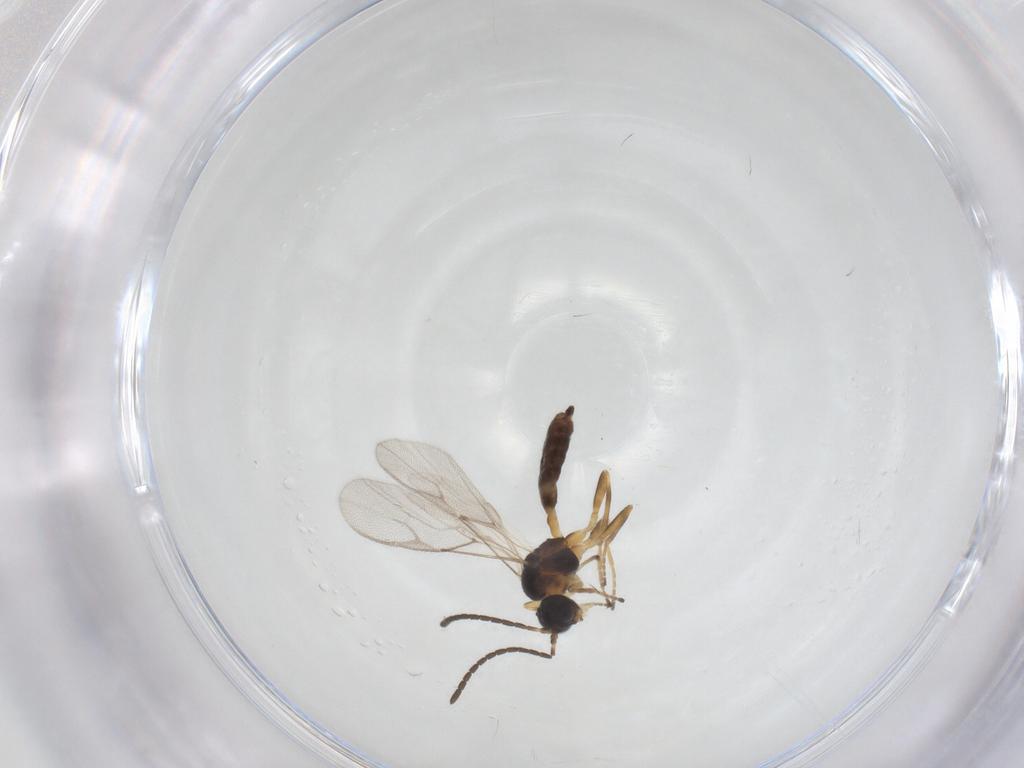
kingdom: Animalia
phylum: Arthropoda
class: Insecta
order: Hymenoptera
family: Braconidae
